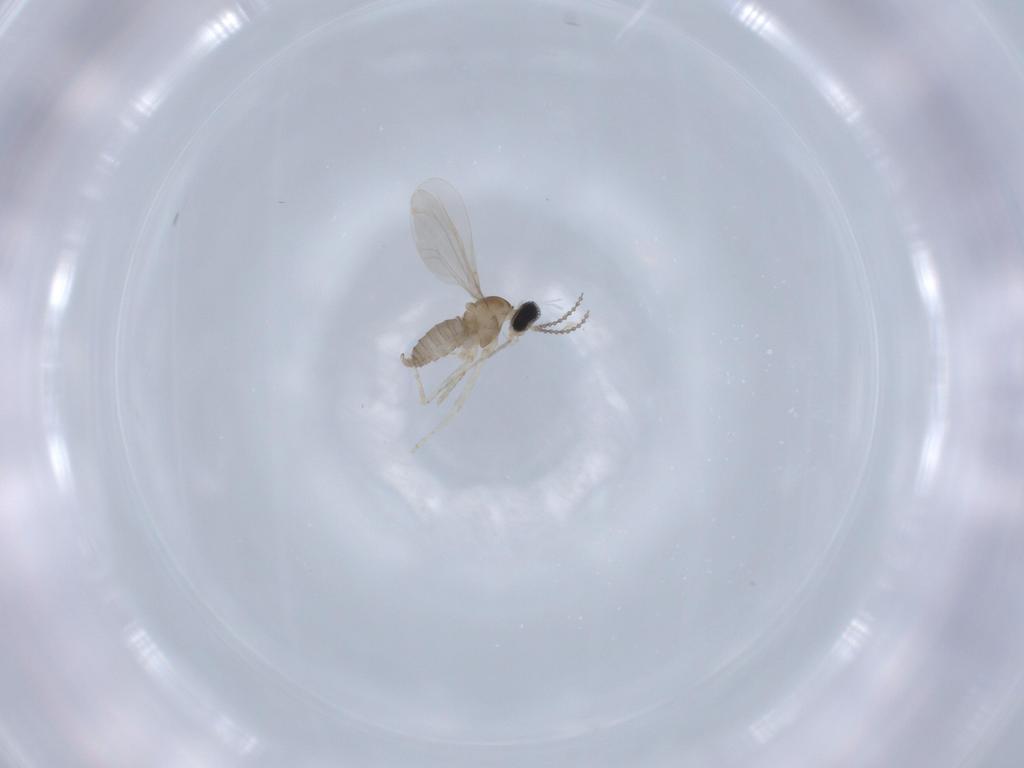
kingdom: Animalia
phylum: Arthropoda
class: Insecta
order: Diptera
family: Cecidomyiidae
